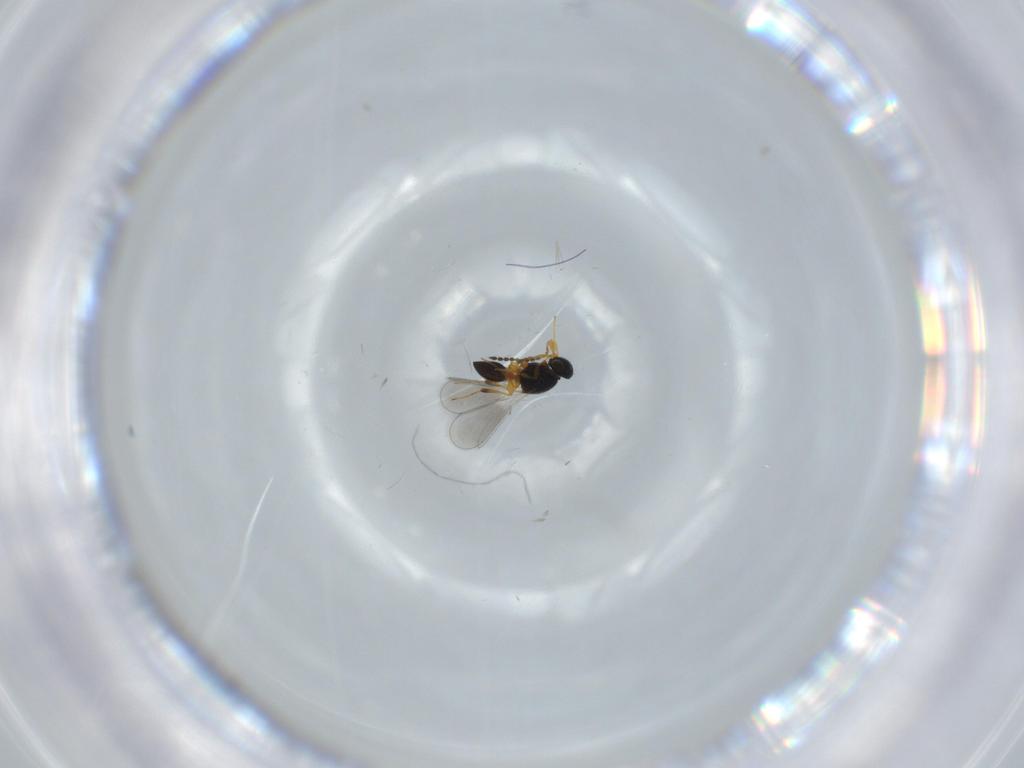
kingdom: Animalia
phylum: Arthropoda
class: Insecta
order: Hymenoptera
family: Platygastridae
